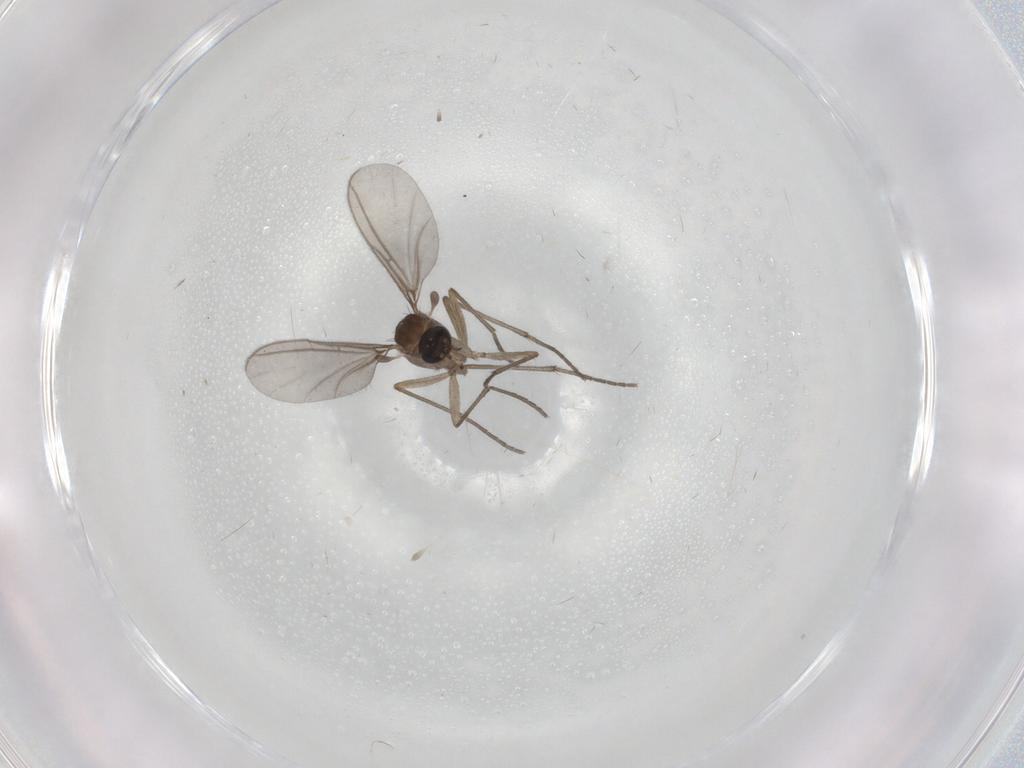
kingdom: Animalia
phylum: Arthropoda
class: Insecta
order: Diptera
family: Sciaridae
